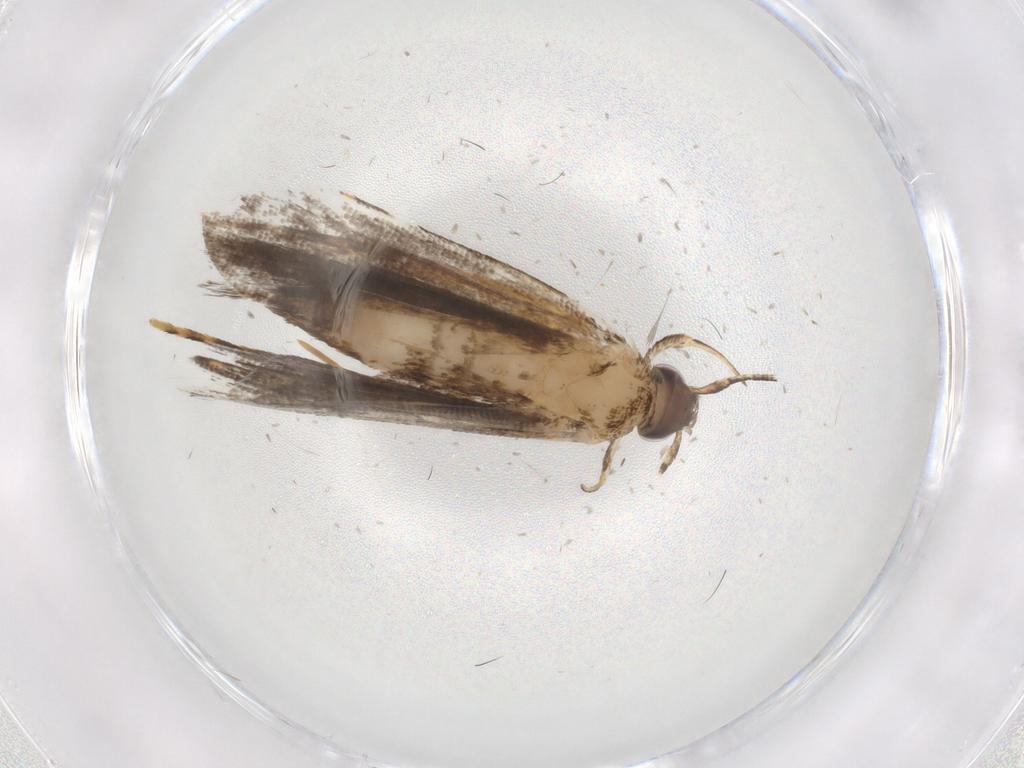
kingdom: Animalia
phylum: Arthropoda
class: Insecta
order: Lepidoptera
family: Cosmopterigidae
